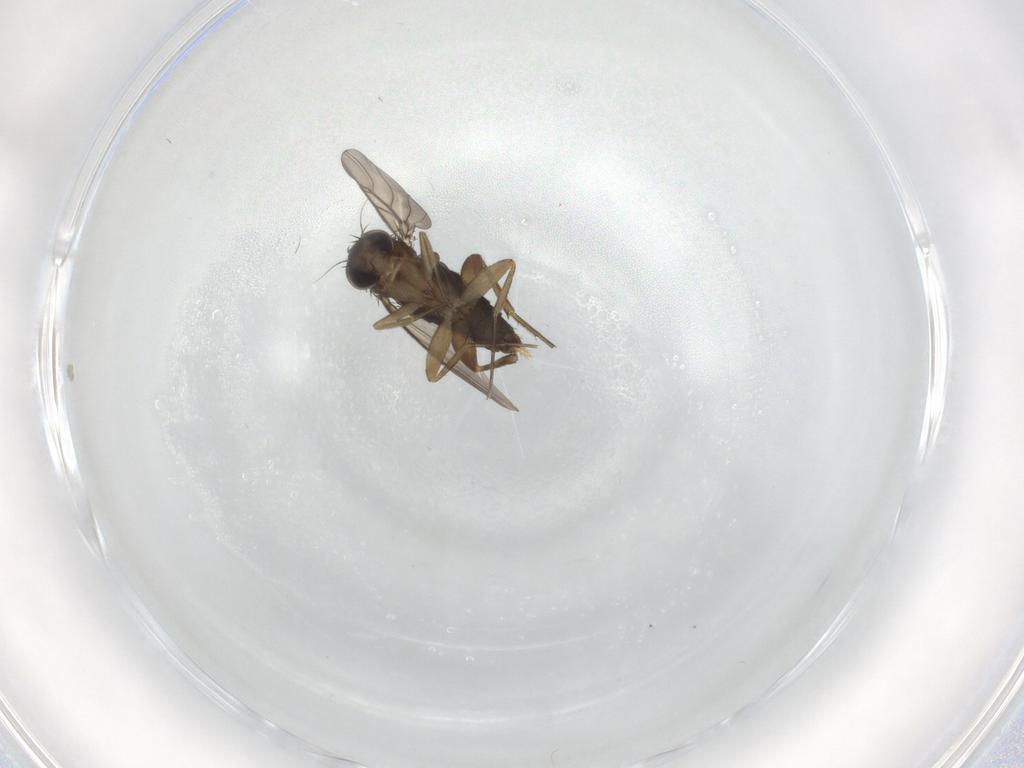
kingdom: Animalia
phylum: Arthropoda
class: Insecta
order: Diptera
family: Phoridae
